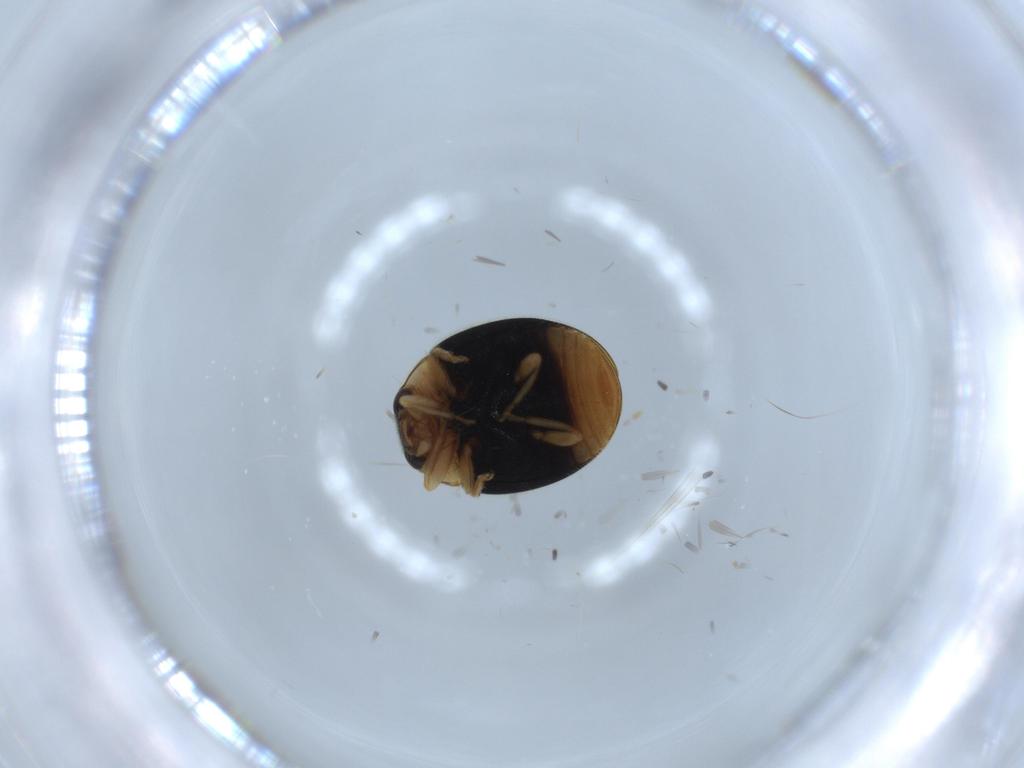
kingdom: Animalia
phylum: Arthropoda
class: Insecta
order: Coleoptera
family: Coccinellidae
